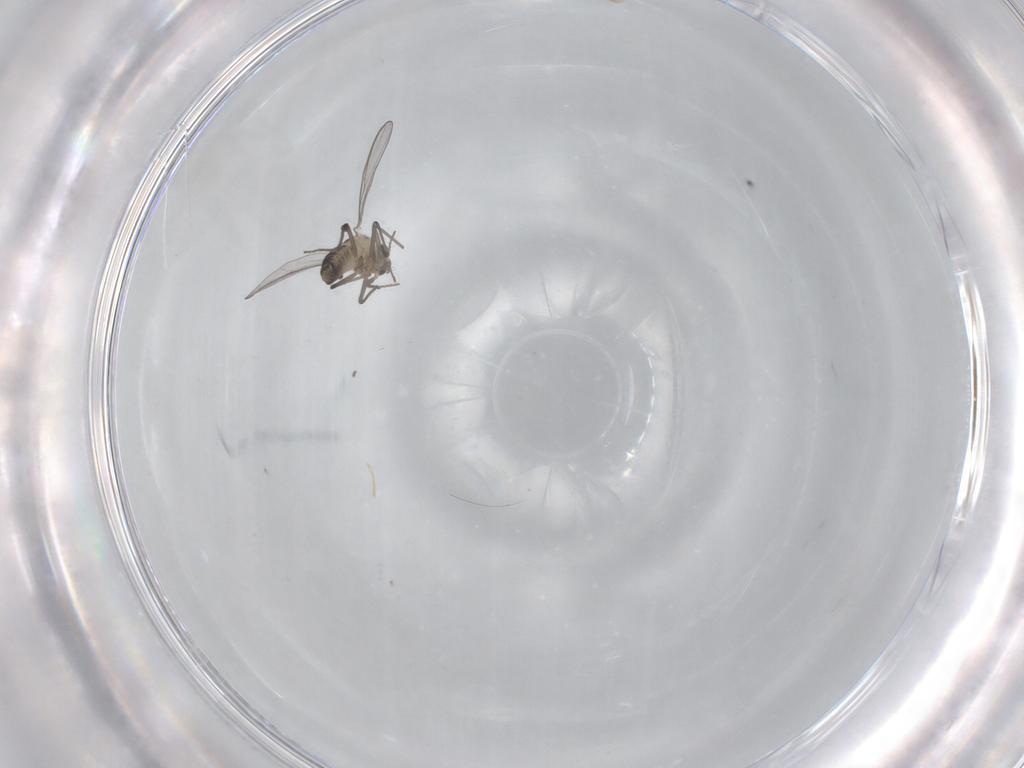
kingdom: Animalia
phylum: Arthropoda
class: Insecta
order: Diptera
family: Chironomidae
